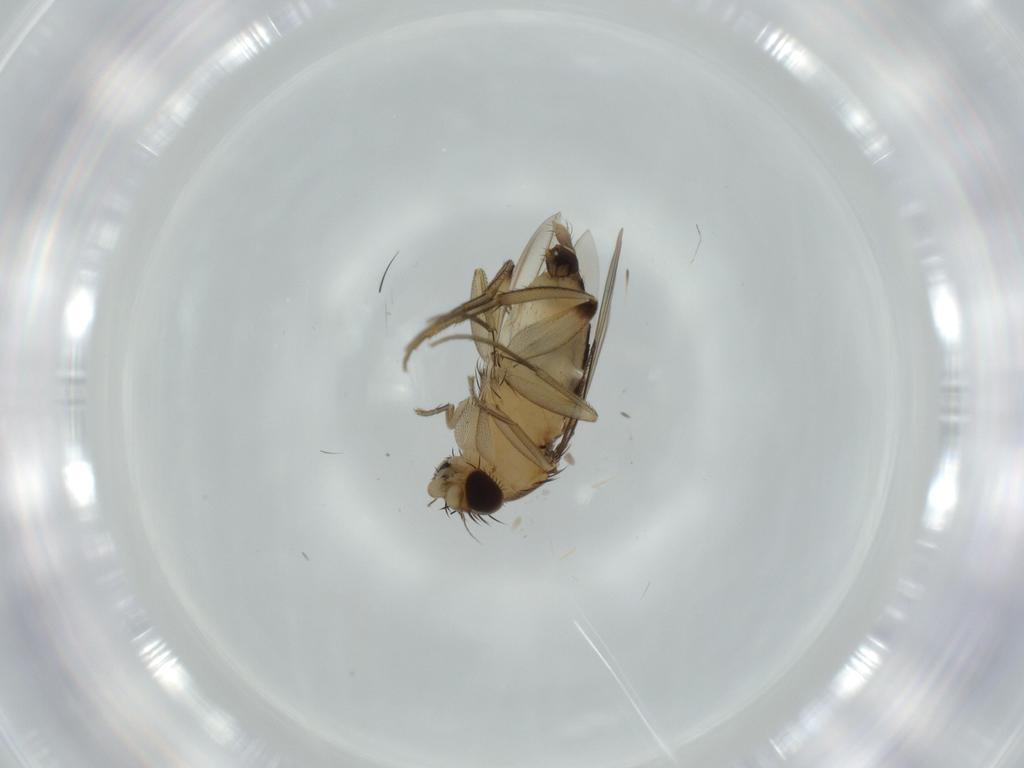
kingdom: Animalia
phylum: Arthropoda
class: Insecta
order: Diptera
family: Phoridae
